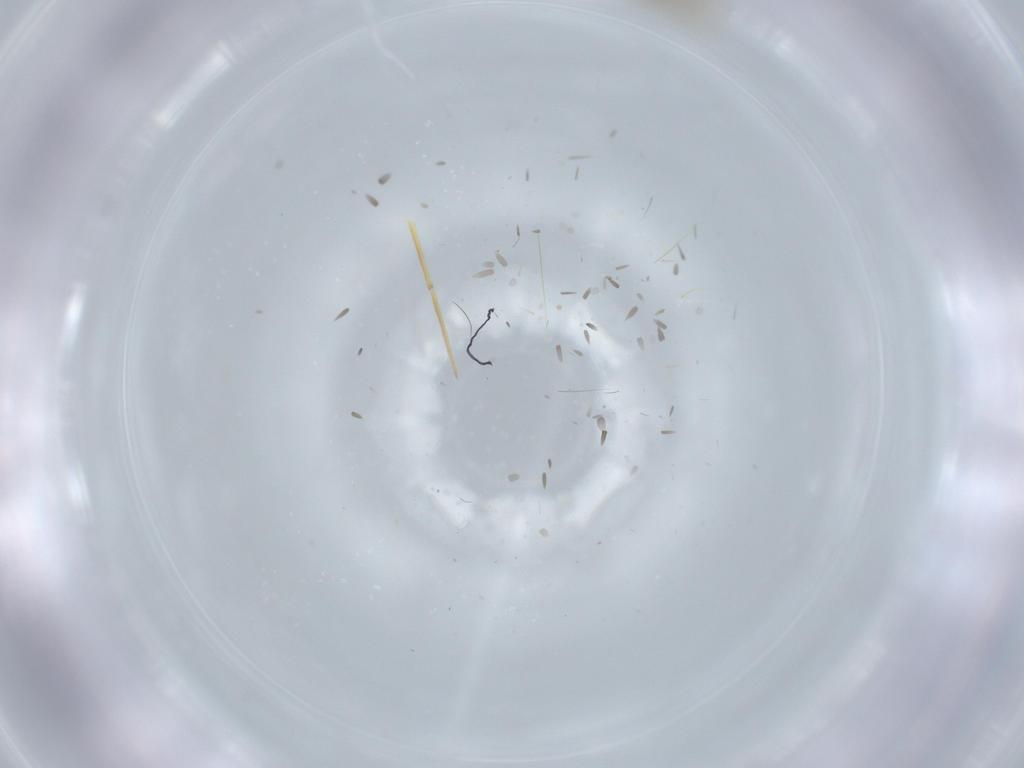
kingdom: Animalia
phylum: Arthropoda
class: Collembola
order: Entomobryomorpha
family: Paronellidae
